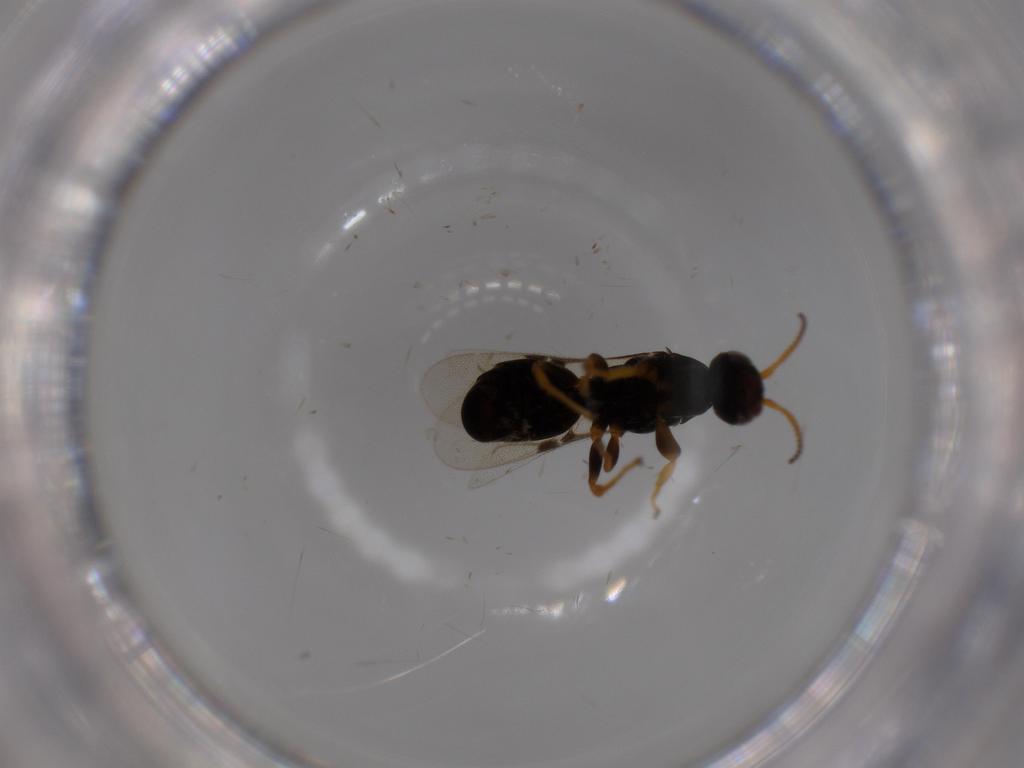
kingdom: Animalia
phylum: Arthropoda
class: Insecta
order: Hymenoptera
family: Bethylidae
